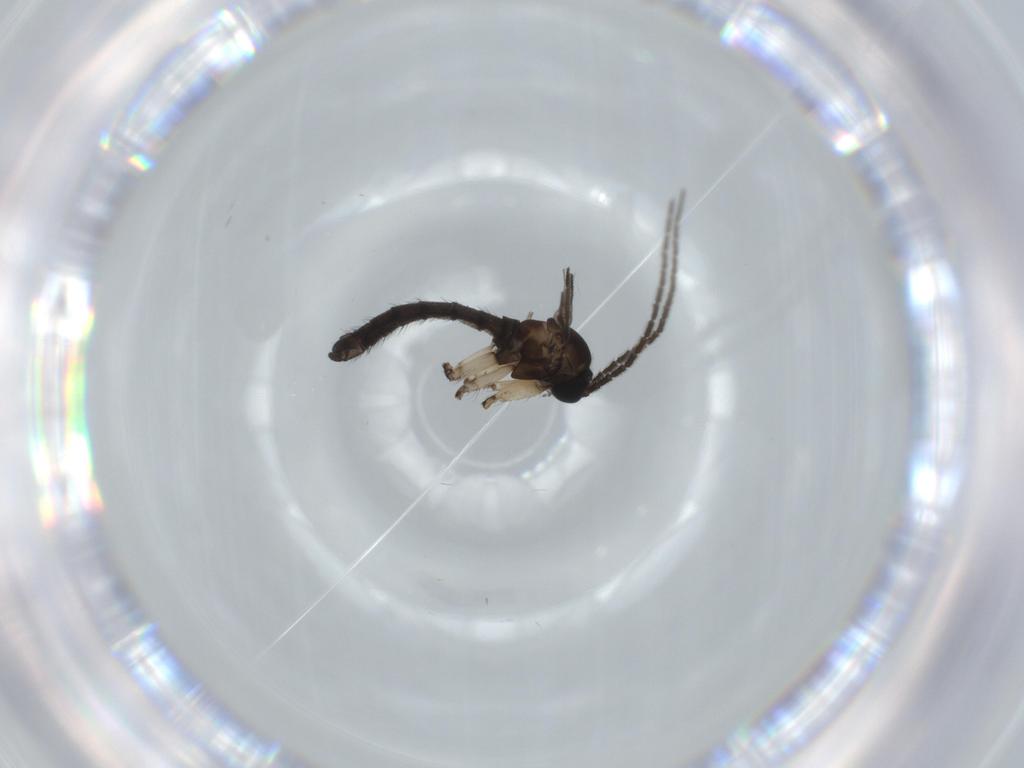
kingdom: Animalia
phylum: Arthropoda
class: Insecta
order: Diptera
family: Sciaridae
